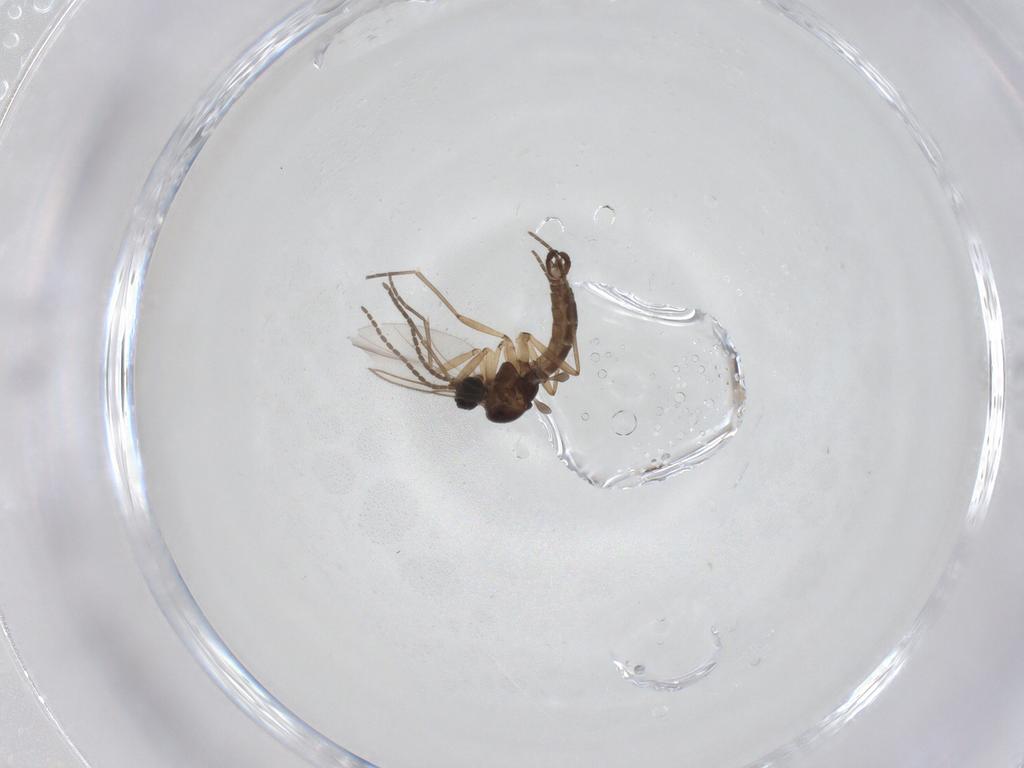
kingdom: Animalia
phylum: Arthropoda
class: Insecta
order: Diptera
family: Sciaridae
